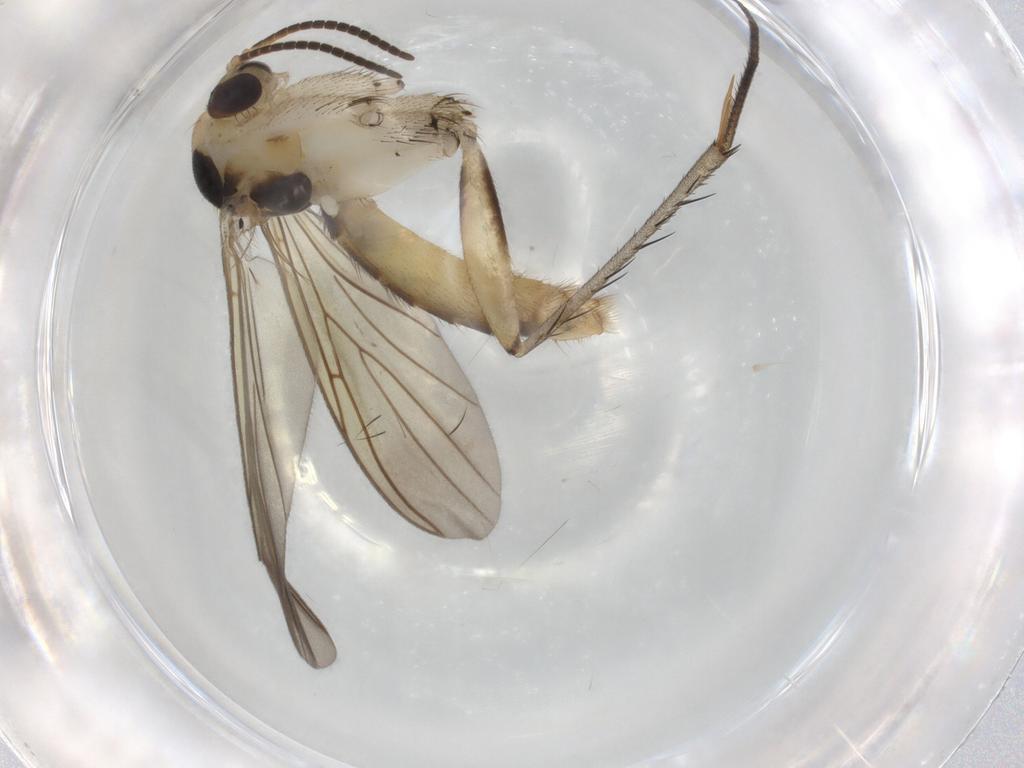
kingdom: Animalia
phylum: Arthropoda
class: Insecta
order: Diptera
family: Mycetophilidae
